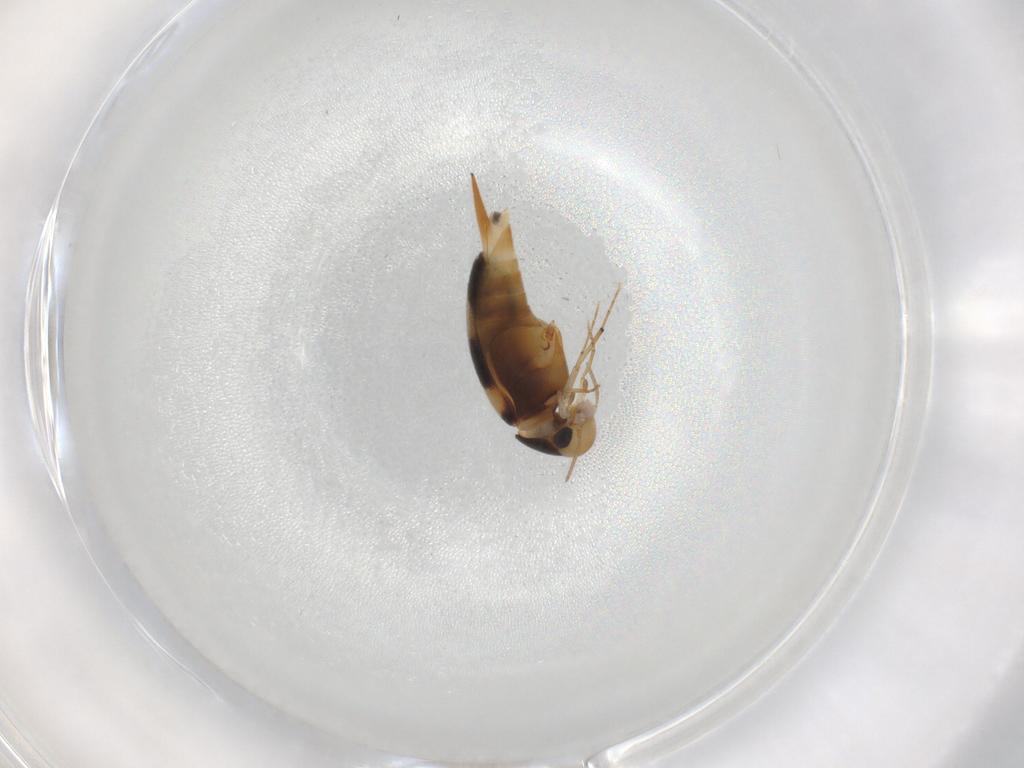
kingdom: Animalia
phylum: Arthropoda
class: Insecta
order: Coleoptera
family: Mordellidae
